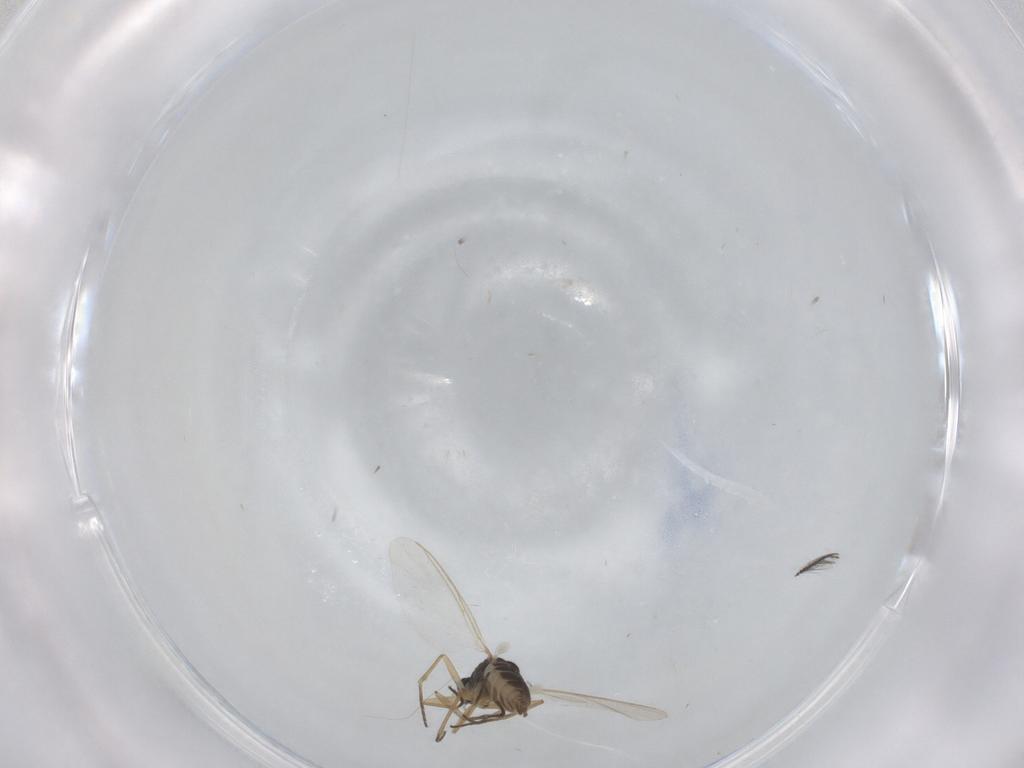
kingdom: Animalia
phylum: Arthropoda
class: Insecta
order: Diptera
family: Sciaridae
